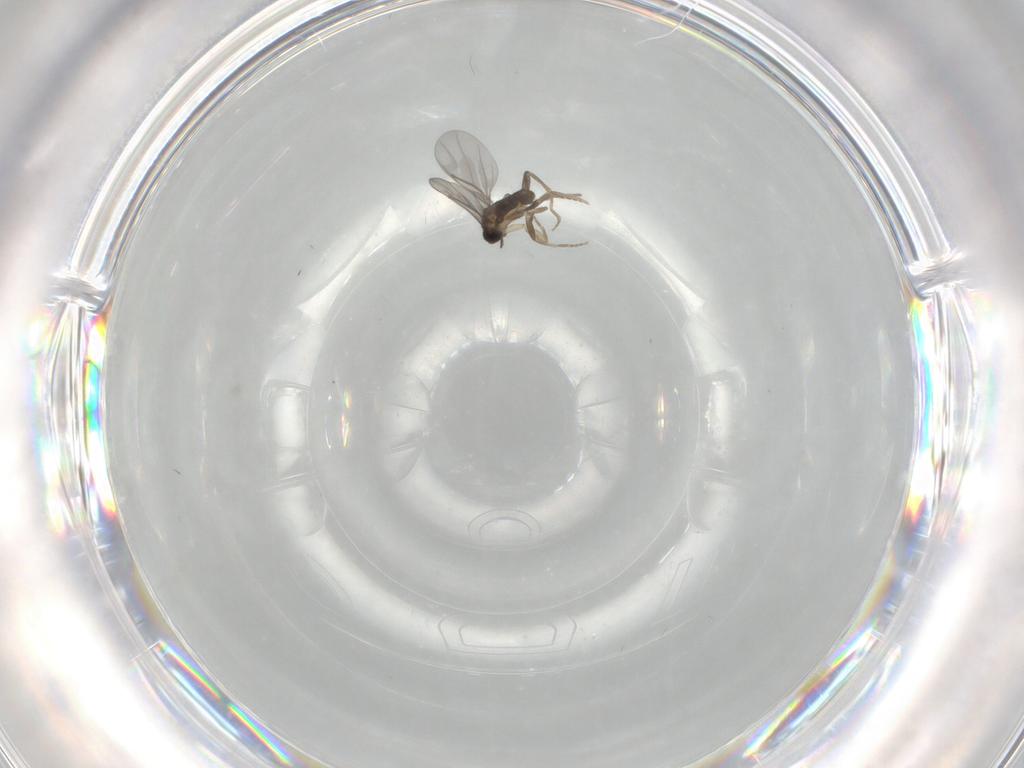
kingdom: Animalia
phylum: Arthropoda
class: Insecta
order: Diptera
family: Phoridae
